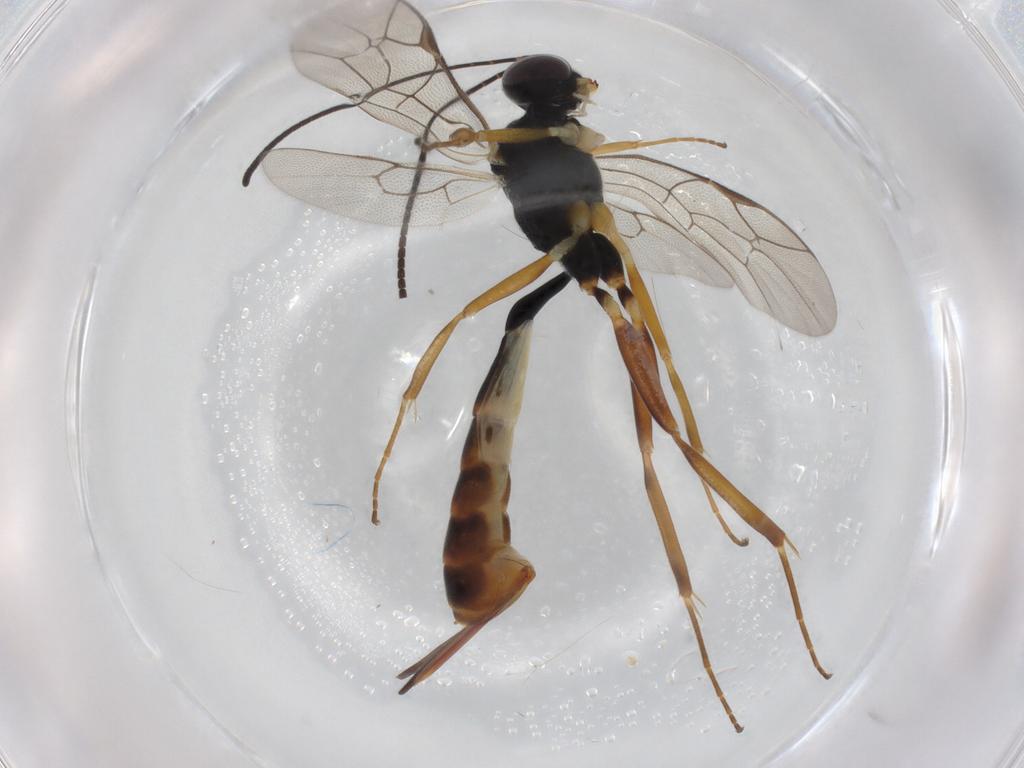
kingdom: Animalia
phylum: Arthropoda
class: Insecta
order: Hymenoptera
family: Ichneumonidae
